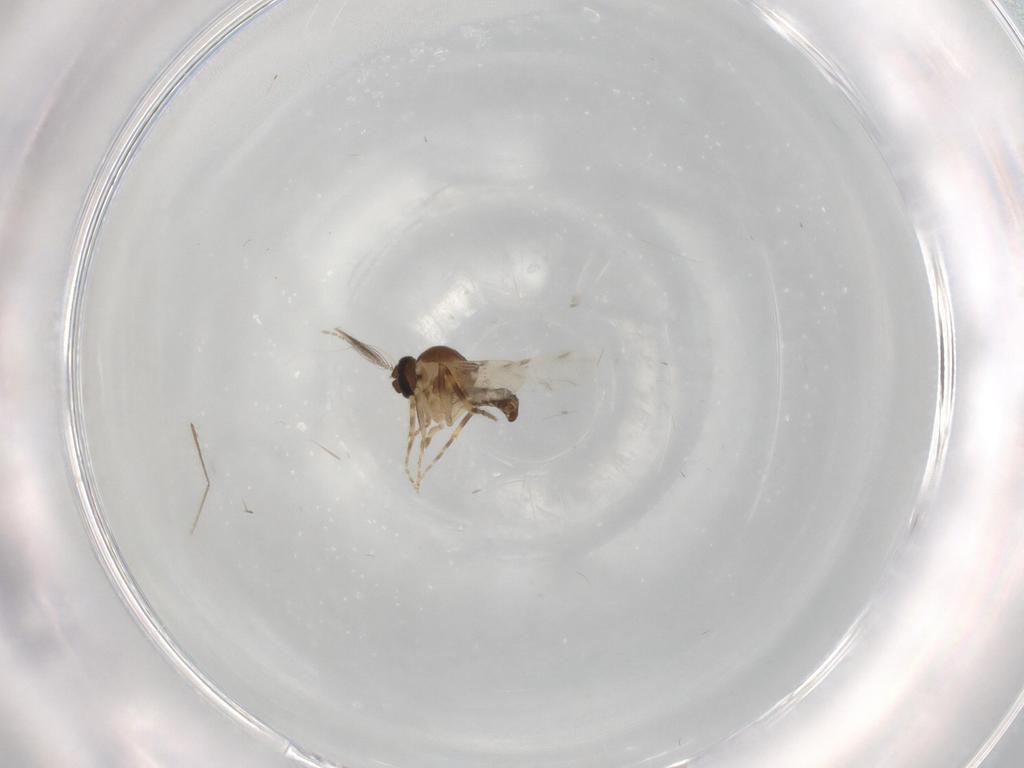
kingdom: Animalia
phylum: Arthropoda
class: Insecta
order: Diptera
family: Ceratopogonidae
